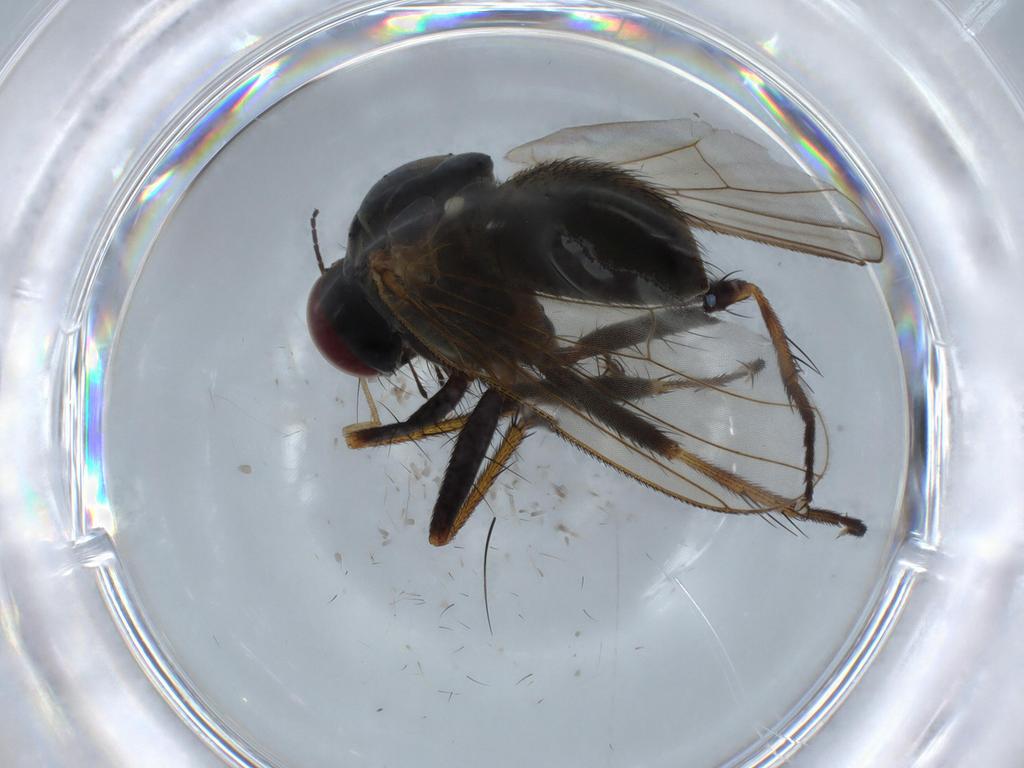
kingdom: Animalia
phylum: Arthropoda
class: Insecta
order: Diptera
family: Muscidae
